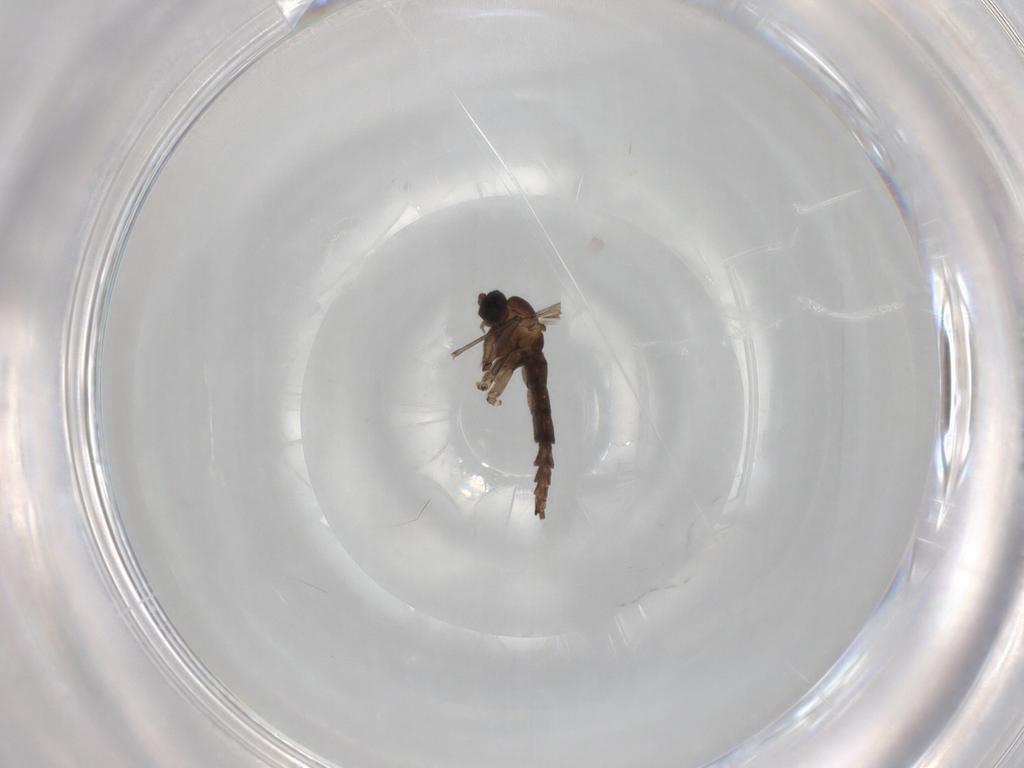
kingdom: Animalia
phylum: Arthropoda
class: Insecta
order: Diptera
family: Sciaridae
